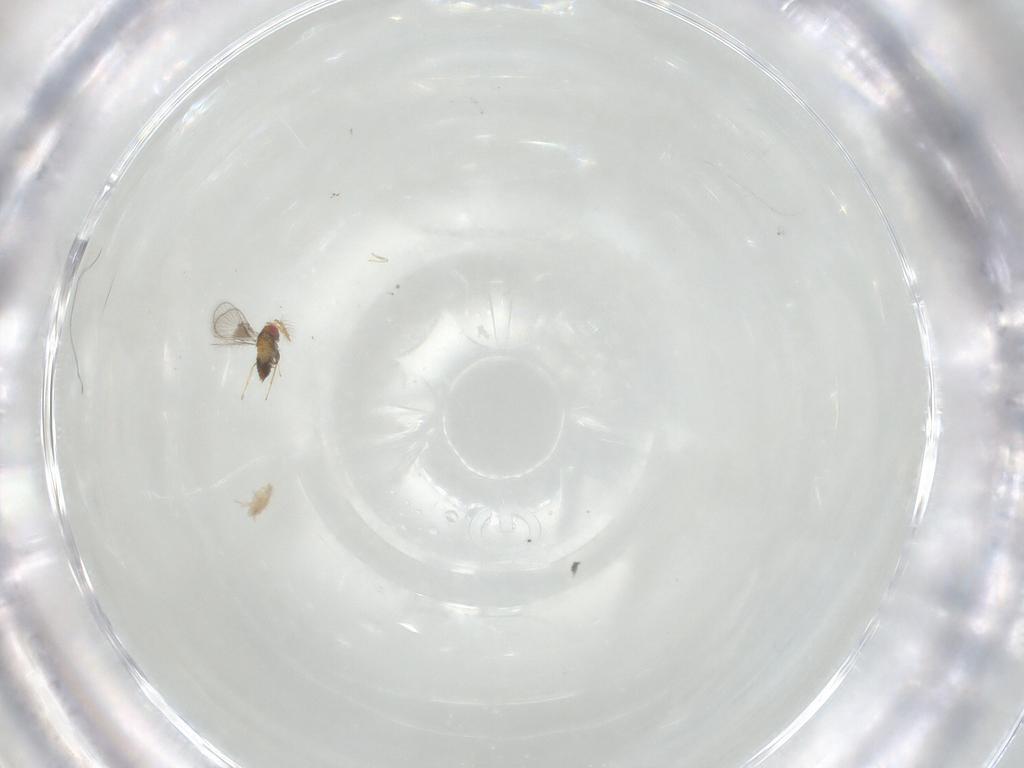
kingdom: Animalia
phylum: Arthropoda
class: Insecta
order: Hymenoptera
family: Trichogrammatidae
